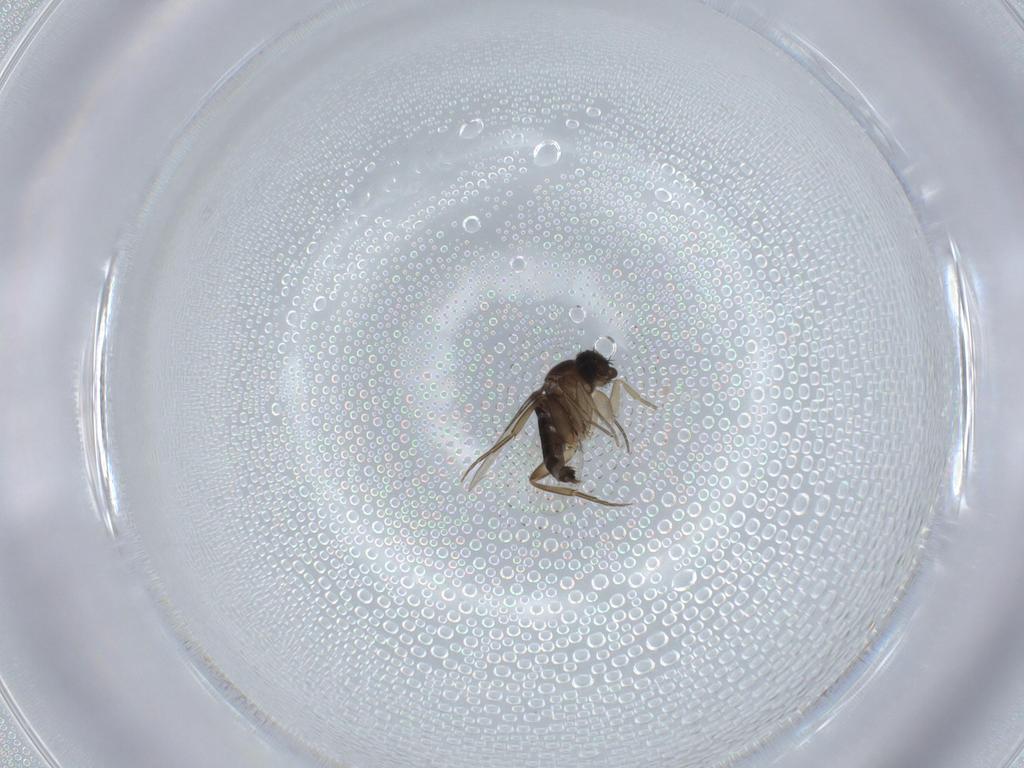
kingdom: Animalia
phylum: Arthropoda
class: Insecta
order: Diptera
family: Phoridae
